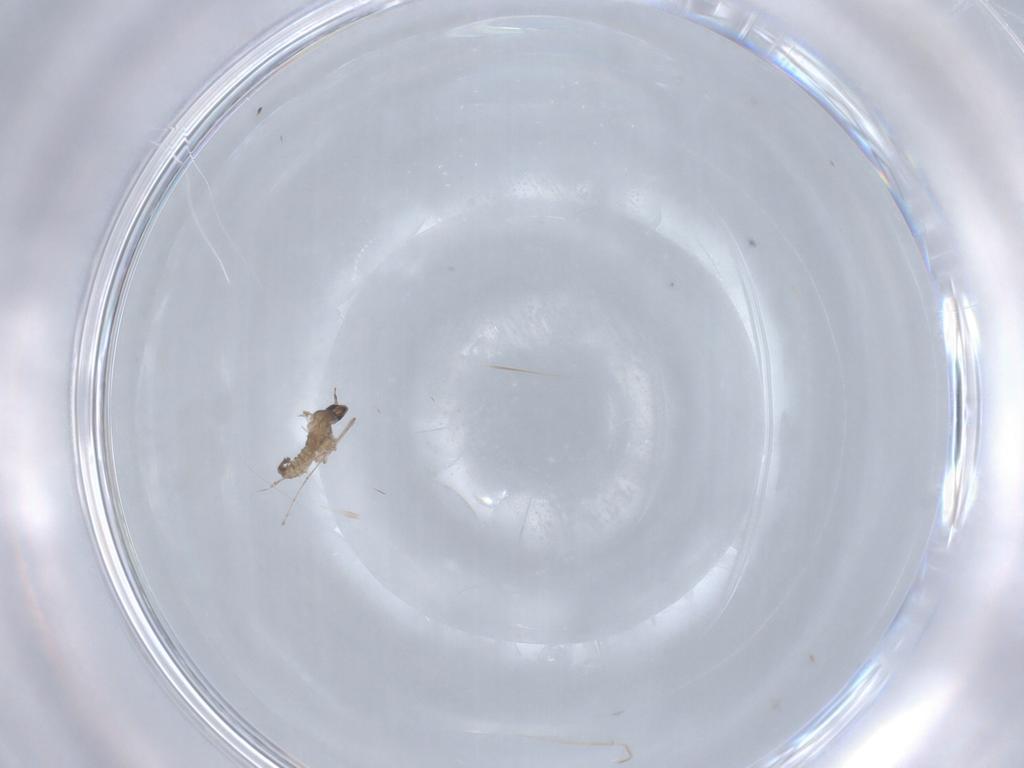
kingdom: Animalia
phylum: Arthropoda
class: Insecta
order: Diptera
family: Cecidomyiidae
